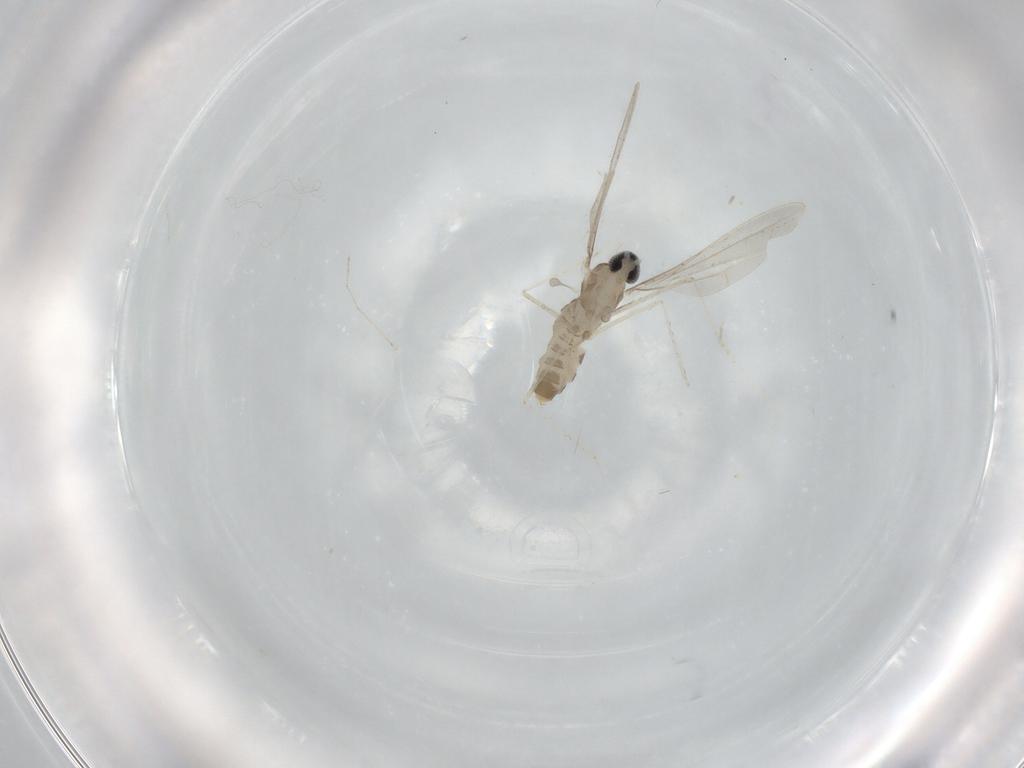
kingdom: Animalia
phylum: Arthropoda
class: Insecta
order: Diptera
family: Cecidomyiidae
